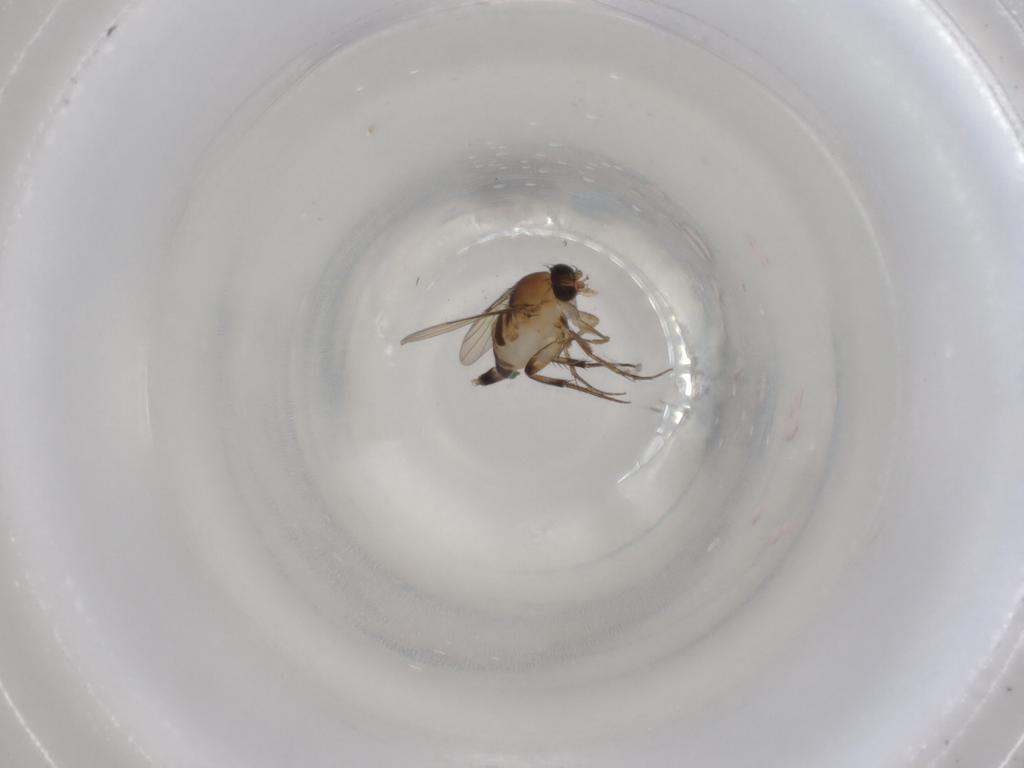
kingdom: Animalia
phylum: Arthropoda
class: Insecta
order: Diptera
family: Phoridae
